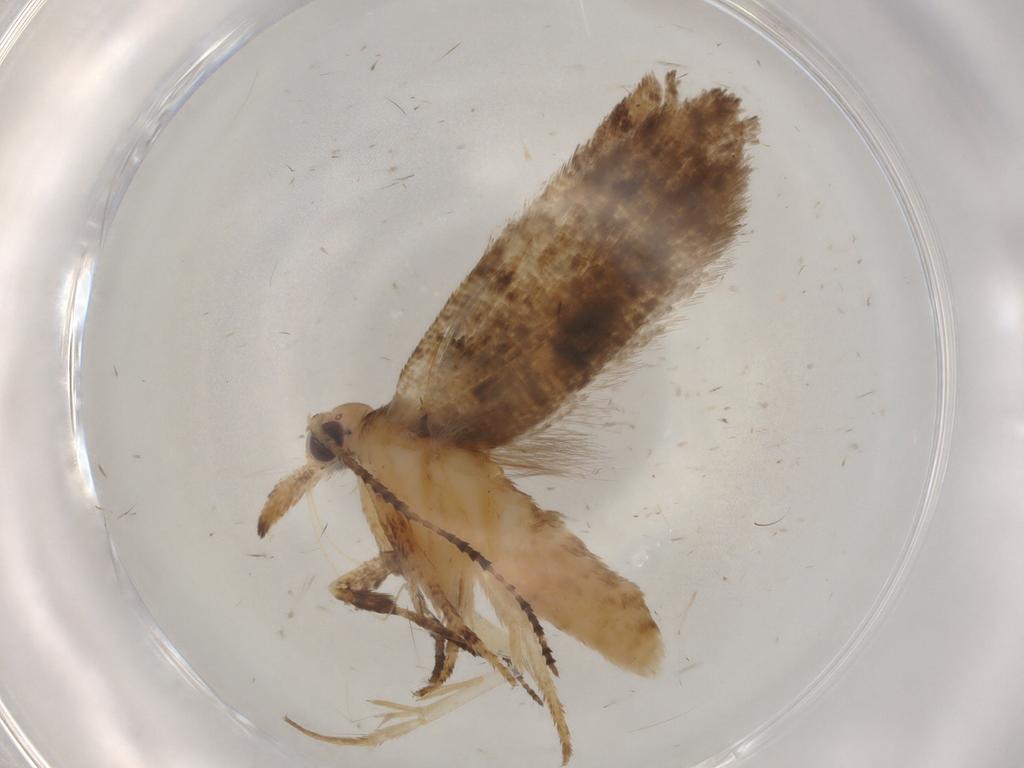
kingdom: Animalia
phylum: Arthropoda
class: Insecta
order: Lepidoptera
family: Ypsolophidae
